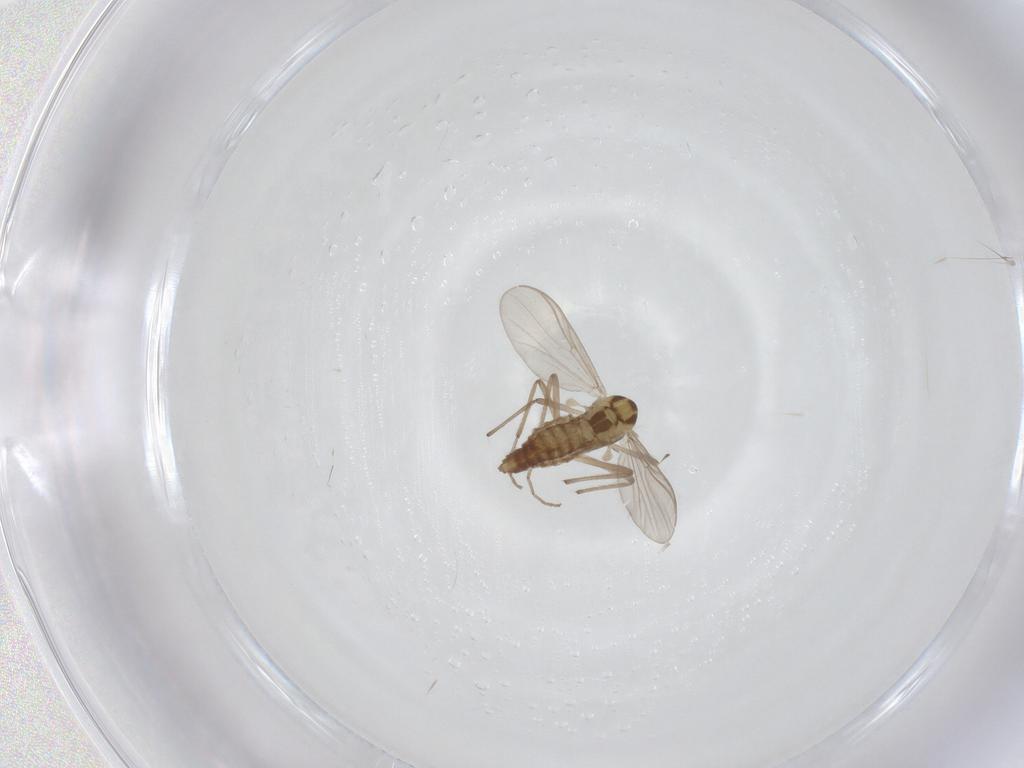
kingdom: Animalia
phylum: Arthropoda
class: Insecta
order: Diptera
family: Chironomidae
